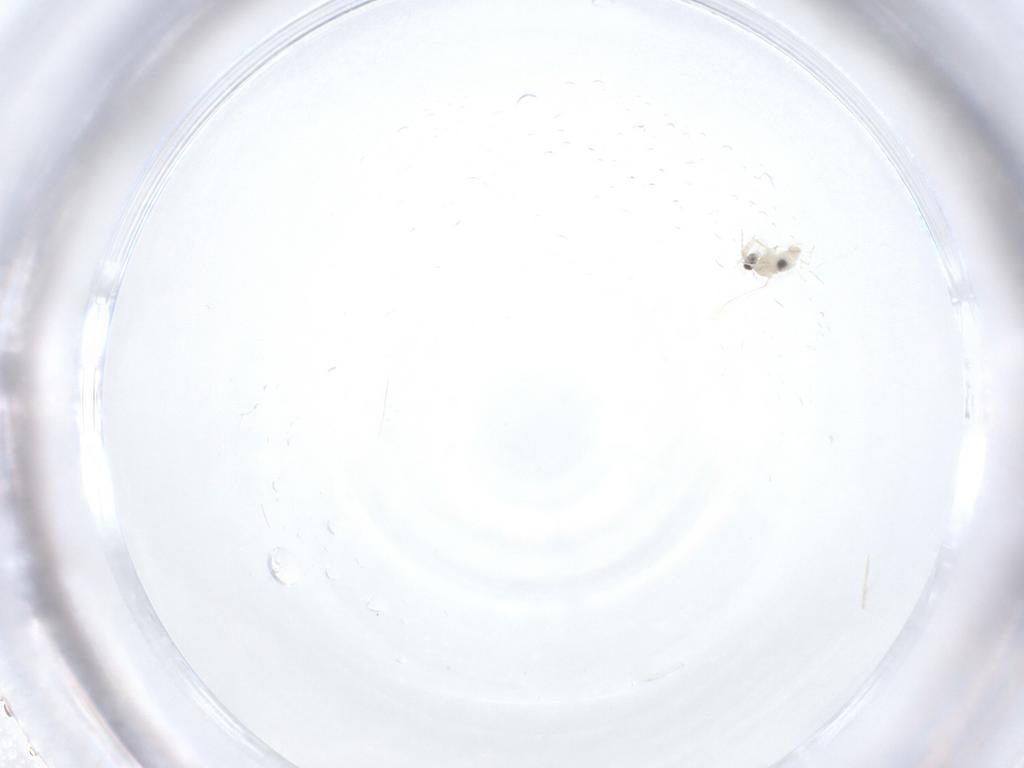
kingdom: Animalia
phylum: Arthropoda
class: Insecta
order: Diptera
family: Cecidomyiidae
